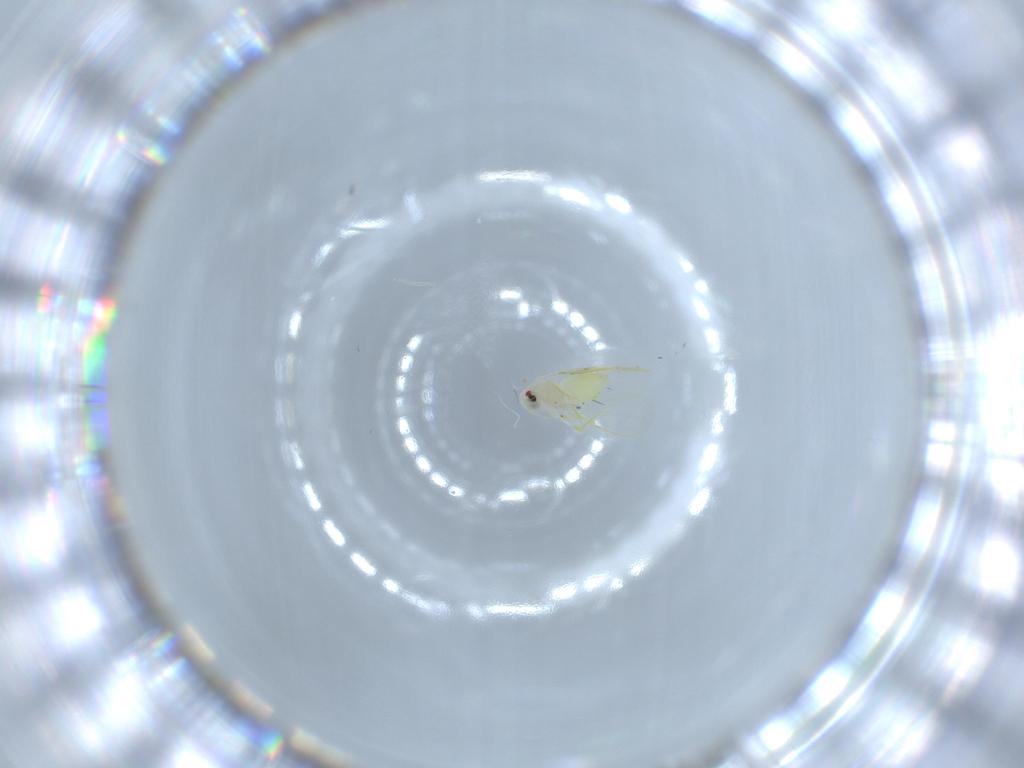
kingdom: Animalia
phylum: Arthropoda
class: Insecta
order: Hemiptera
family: Aleyrodidae
